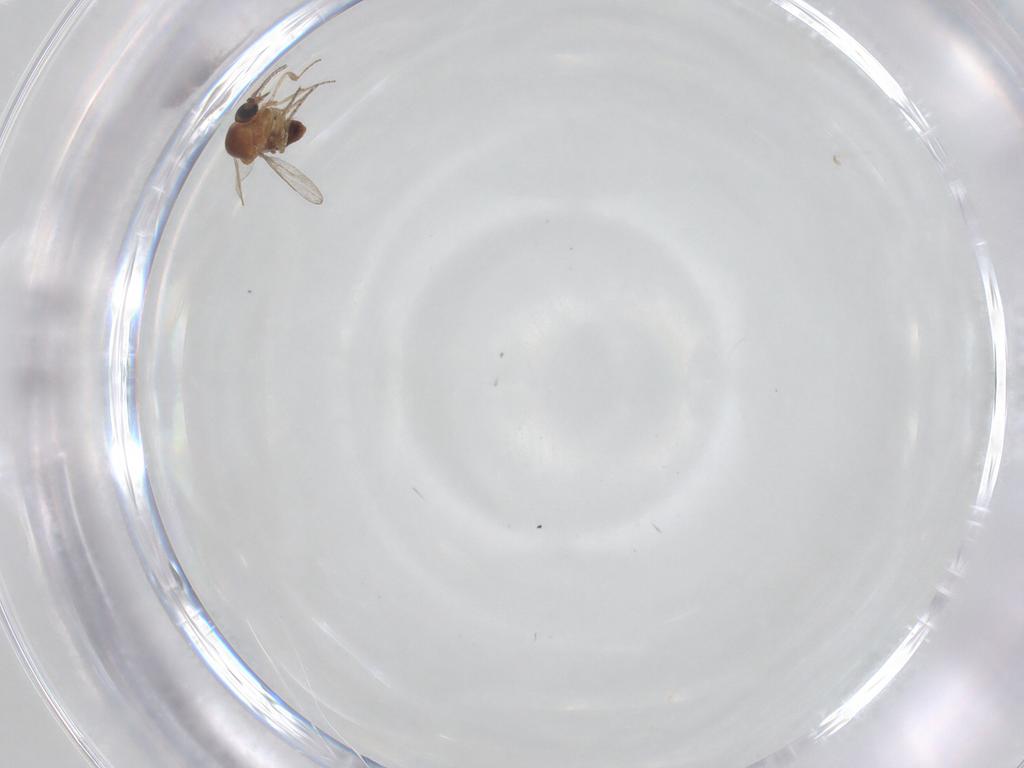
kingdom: Animalia
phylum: Arthropoda
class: Insecta
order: Diptera
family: Ceratopogonidae
